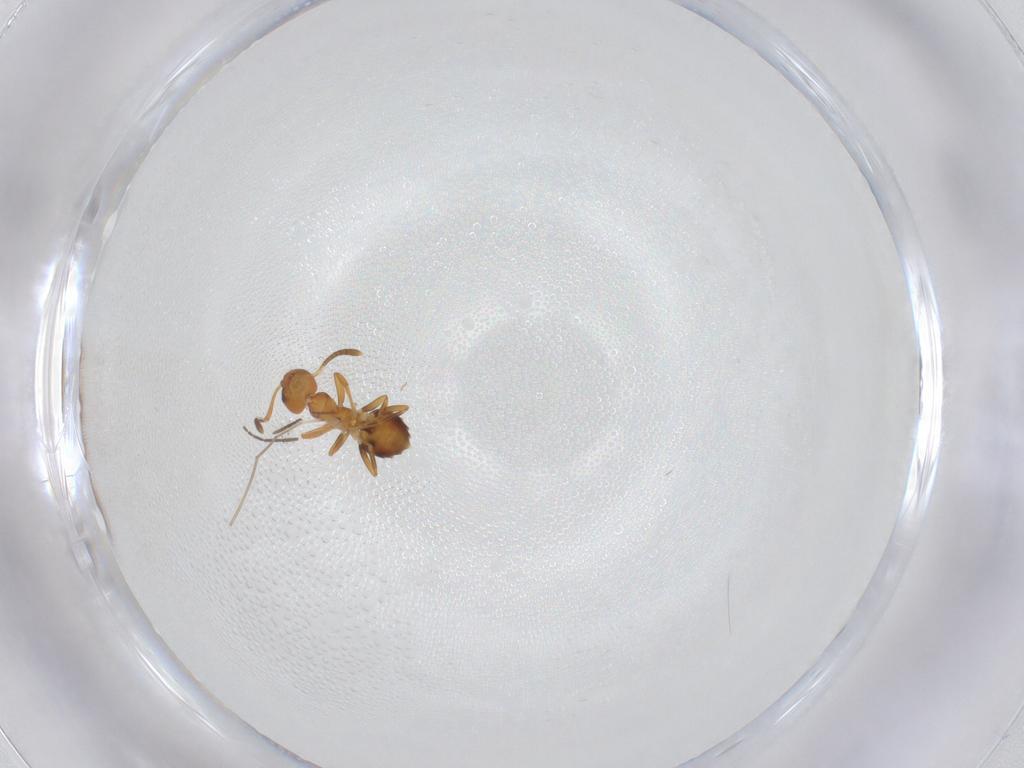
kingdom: Animalia
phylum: Arthropoda
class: Insecta
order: Hymenoptera
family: Formicidae
